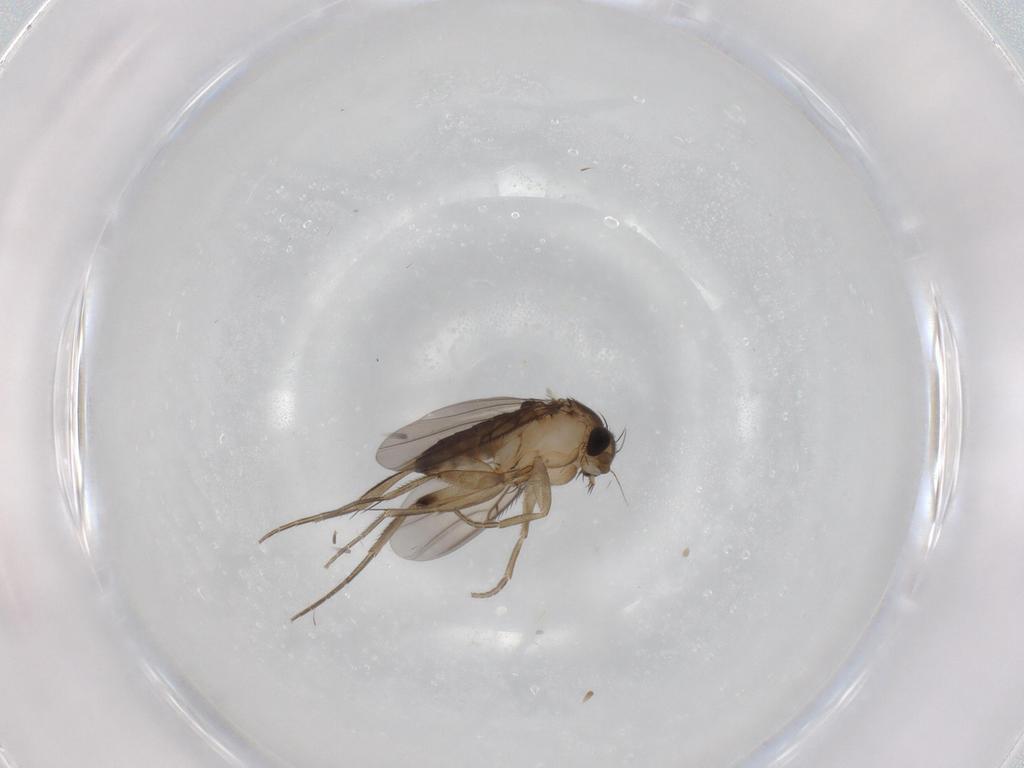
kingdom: Animalia
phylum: Arthropoda
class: Insecta
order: Diptera
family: Phoridae
